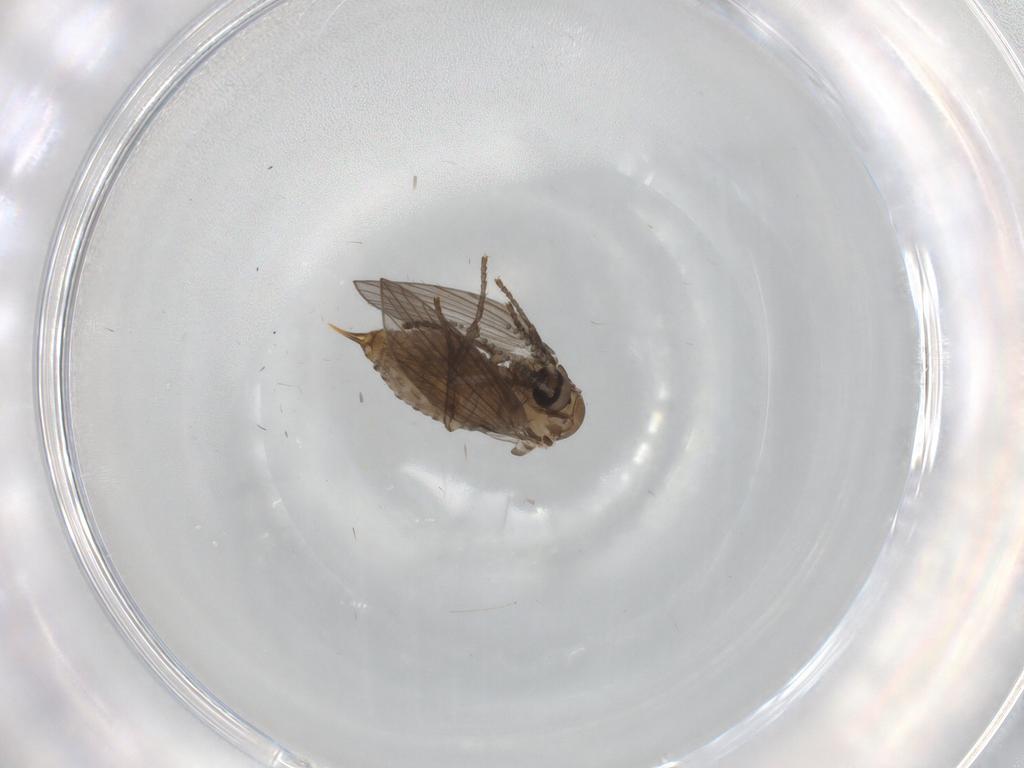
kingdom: Animalia
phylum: Arthropoda
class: Insecta
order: Diptera
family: Psychodidae
